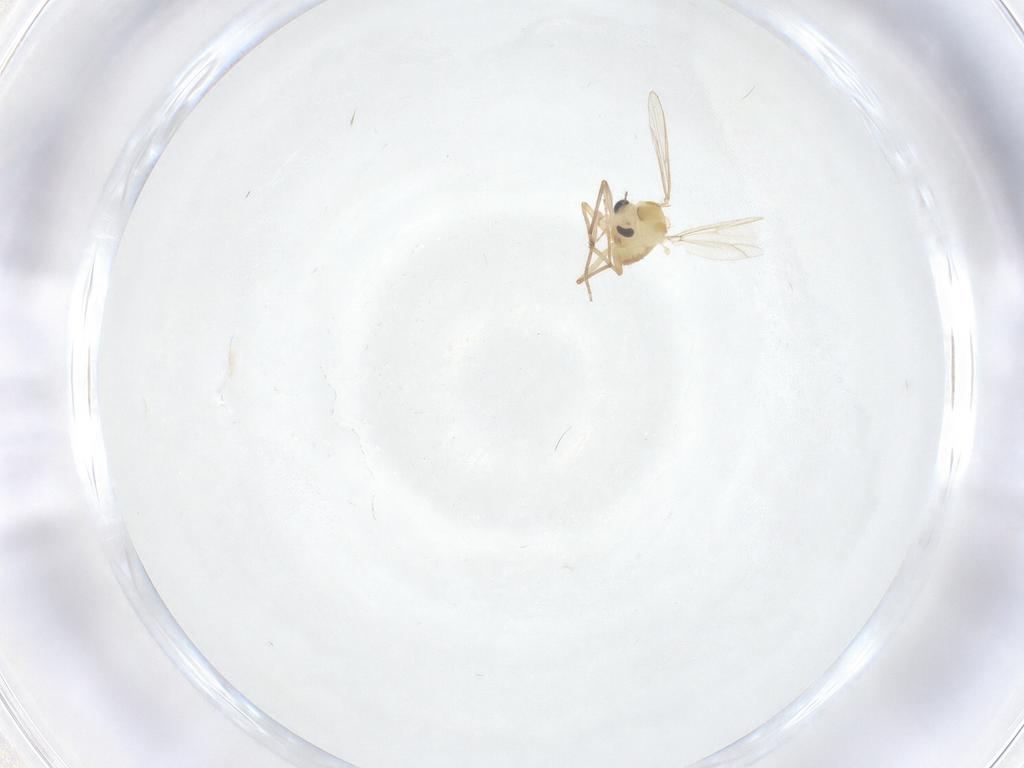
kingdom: Animalia
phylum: Arthropoda
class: Insecta
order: Diptera
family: Chironomidae
